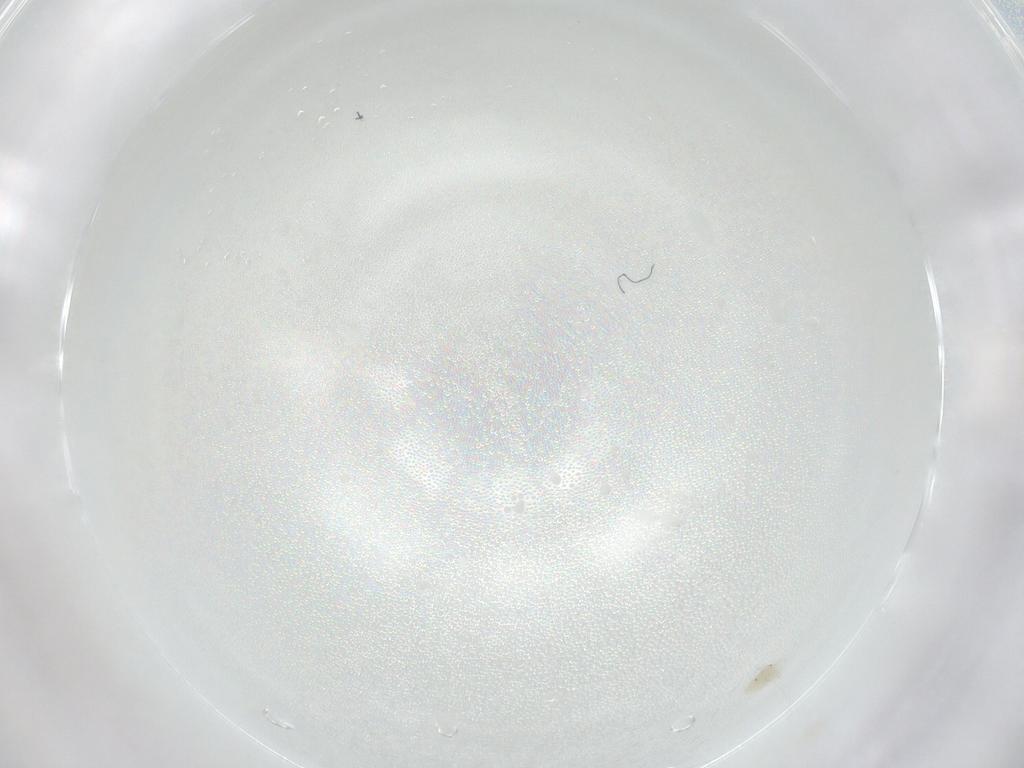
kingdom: Animalia
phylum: Arthropoda
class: Arachnida
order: Trombidiformes
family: Anystidae
